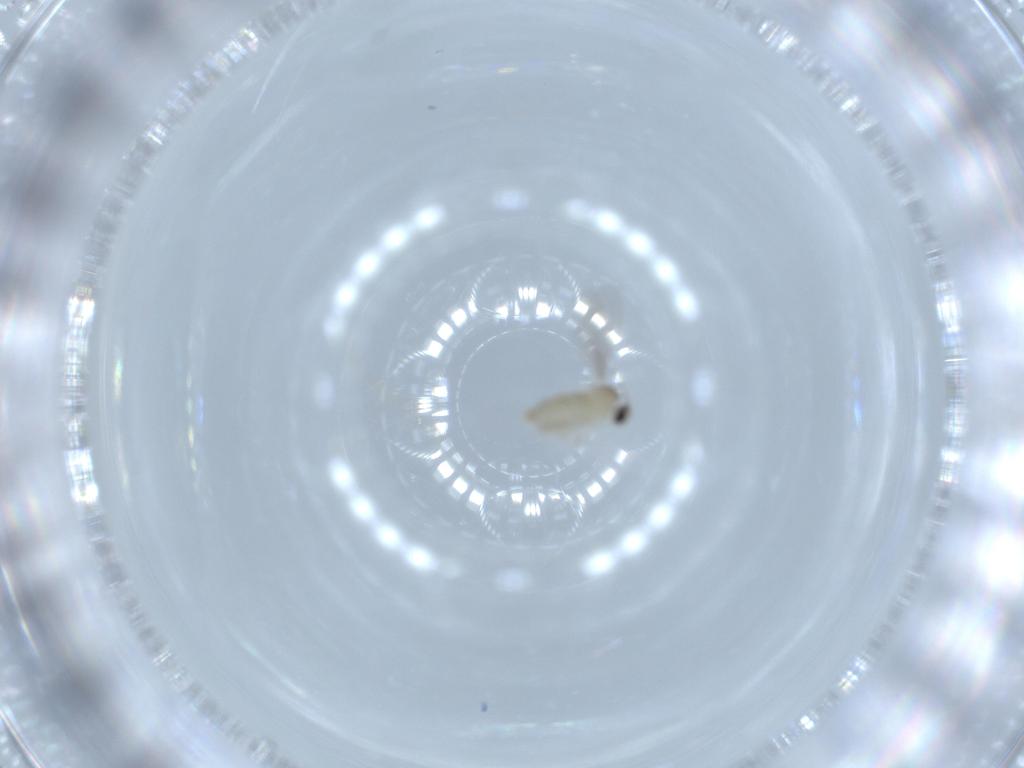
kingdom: Animalia
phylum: Arthropoda
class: Insecta
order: Diptera
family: Cecidomyiidae
